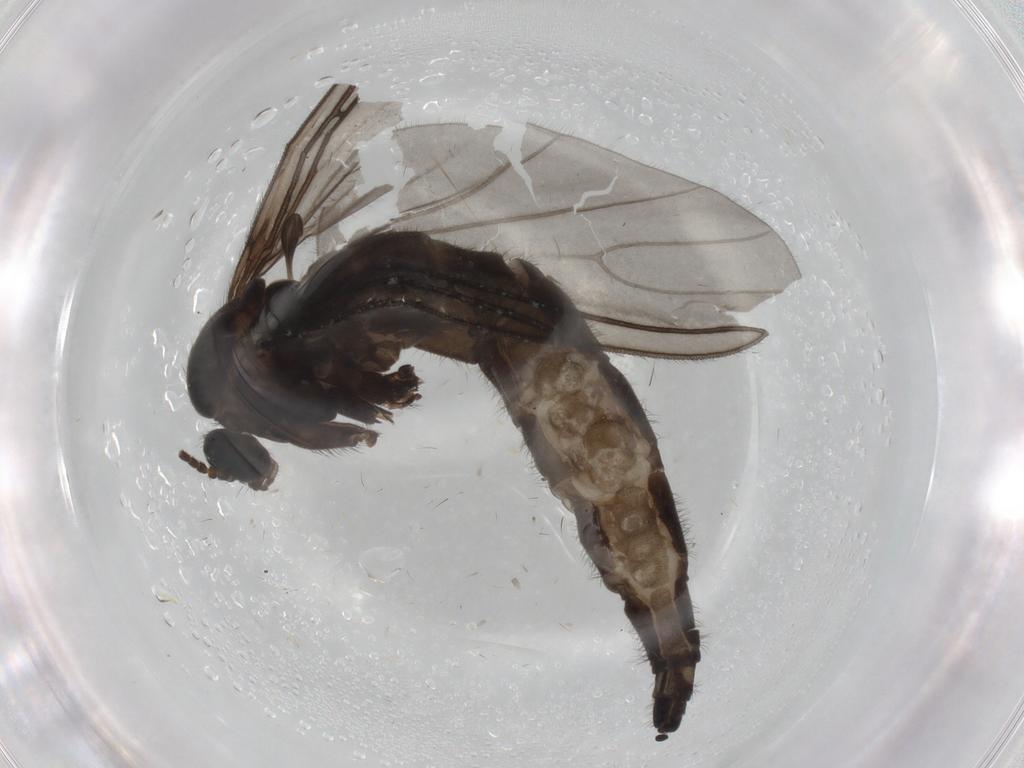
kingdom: Animalia
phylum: Arthropoda
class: Insecta
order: Diptera
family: Sciaridae
